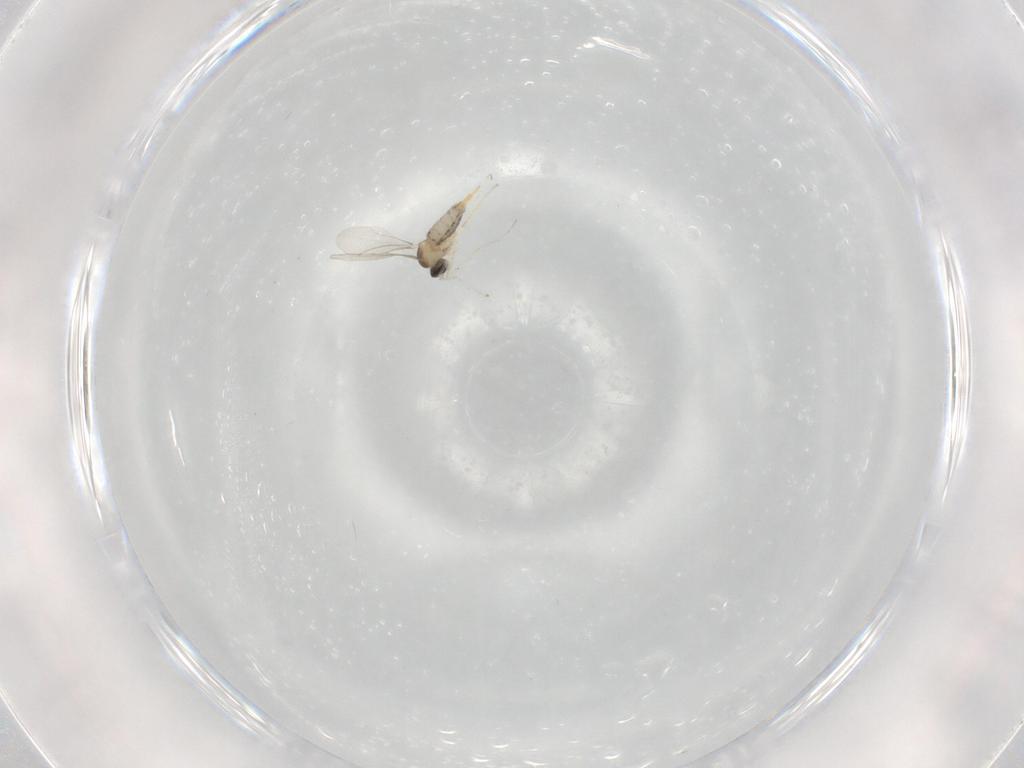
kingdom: Animalia
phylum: Arthropoda
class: Insecta
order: Diptera
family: Cecidomyiidae
